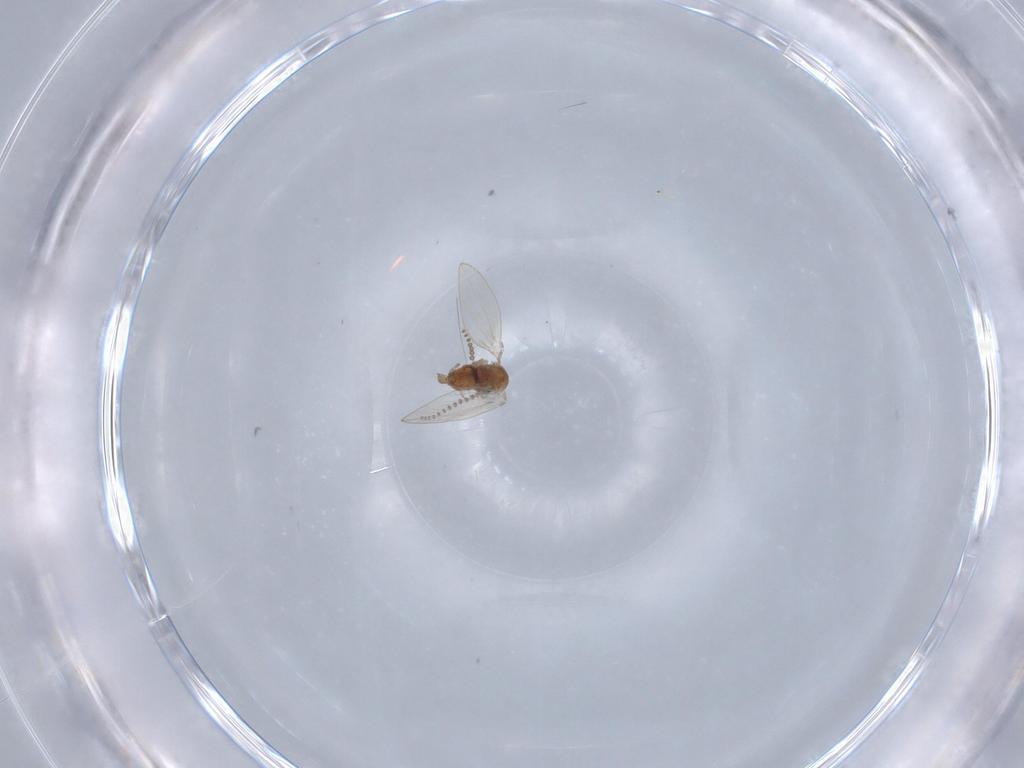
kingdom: Animalia
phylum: Arthropoda
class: Insecta
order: Diptera
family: Psychodidae
